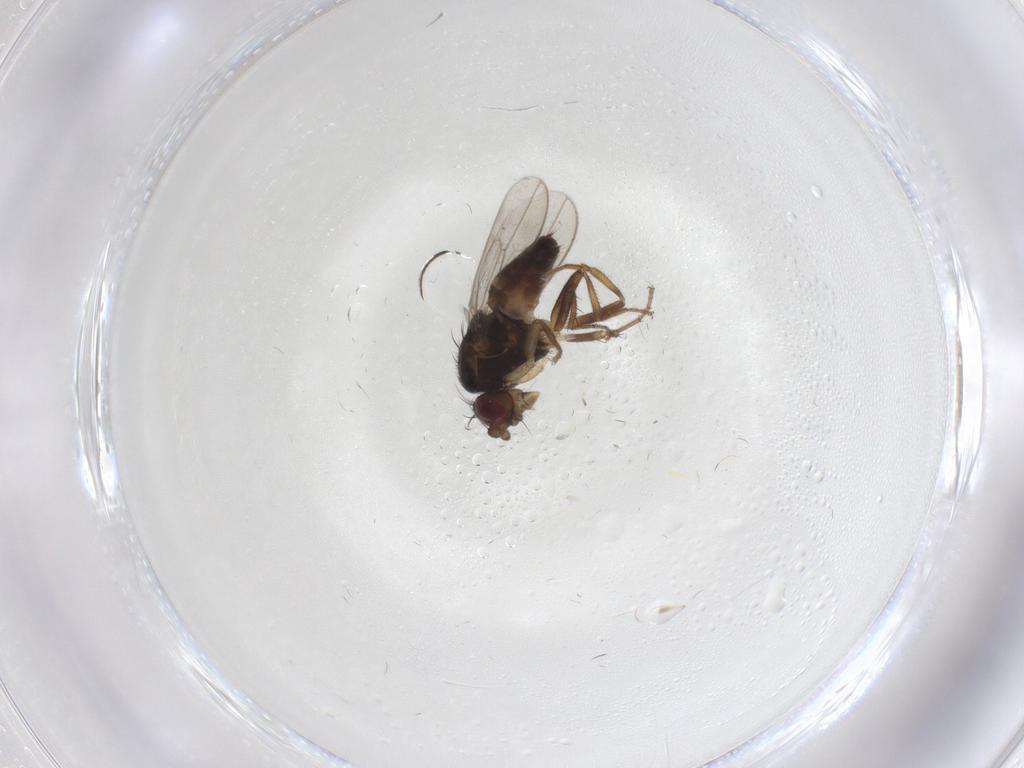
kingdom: Animalia
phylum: Arthropoda
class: Insecta
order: Diptera
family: Sphaeroceridae
